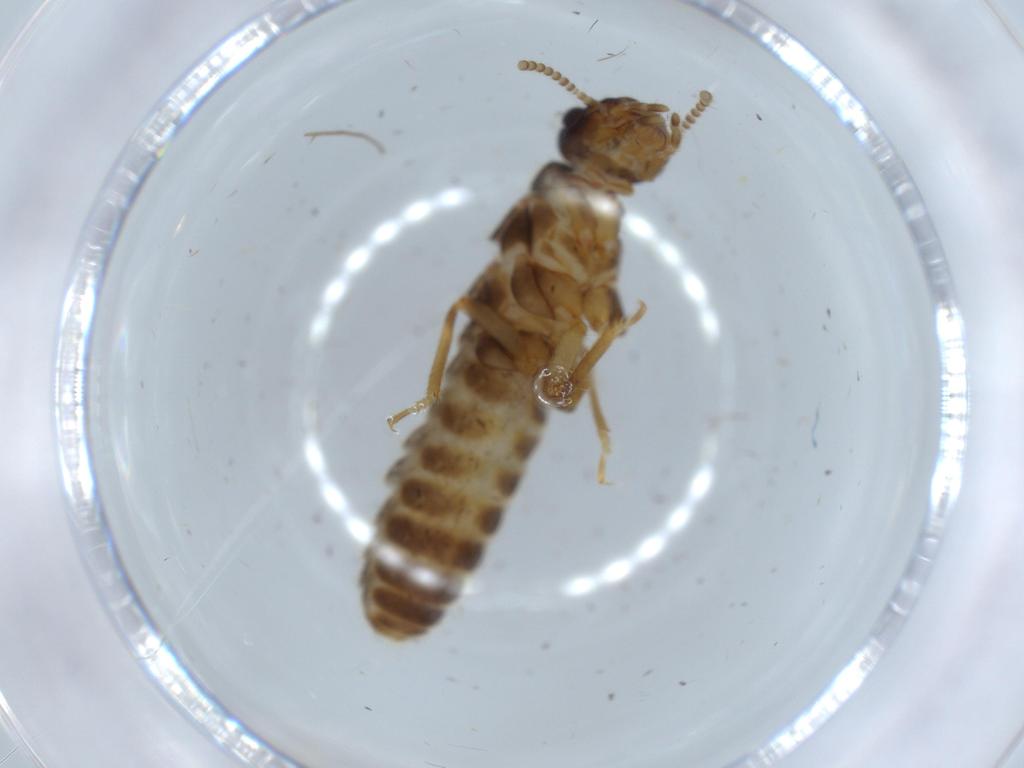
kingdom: Animalia
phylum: Arthropoda
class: Insecta
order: Blattodea
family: Termitidae
